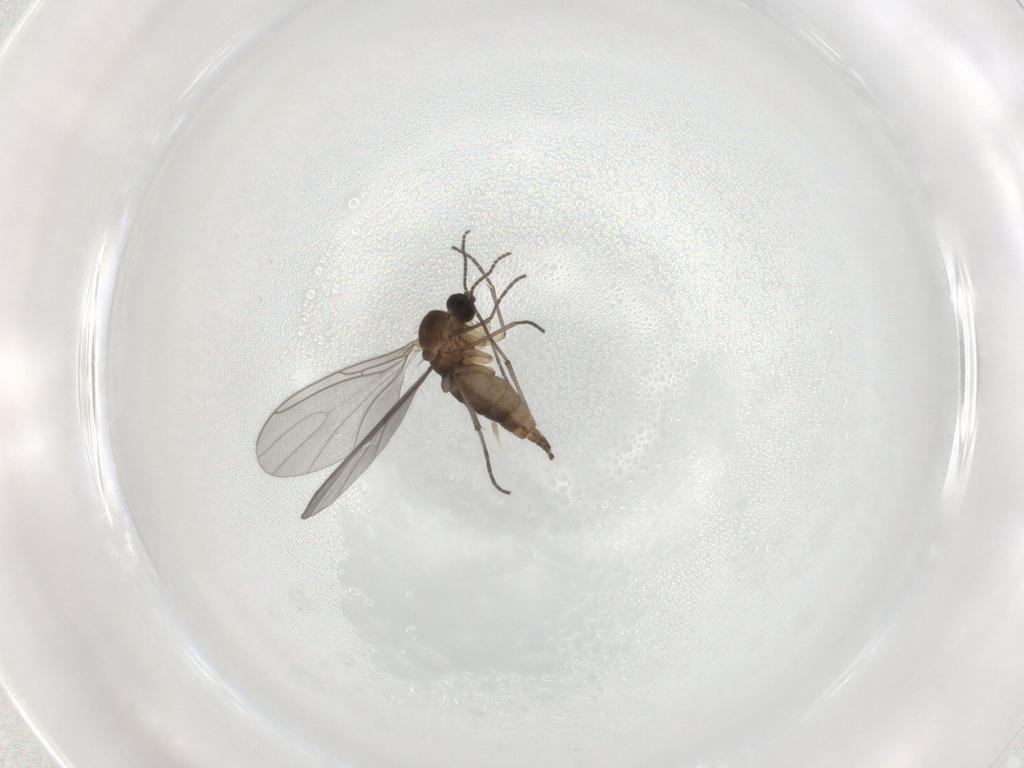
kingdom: Animalia
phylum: Arthropoda
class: Insecta
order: Diptera
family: Sciaridae
